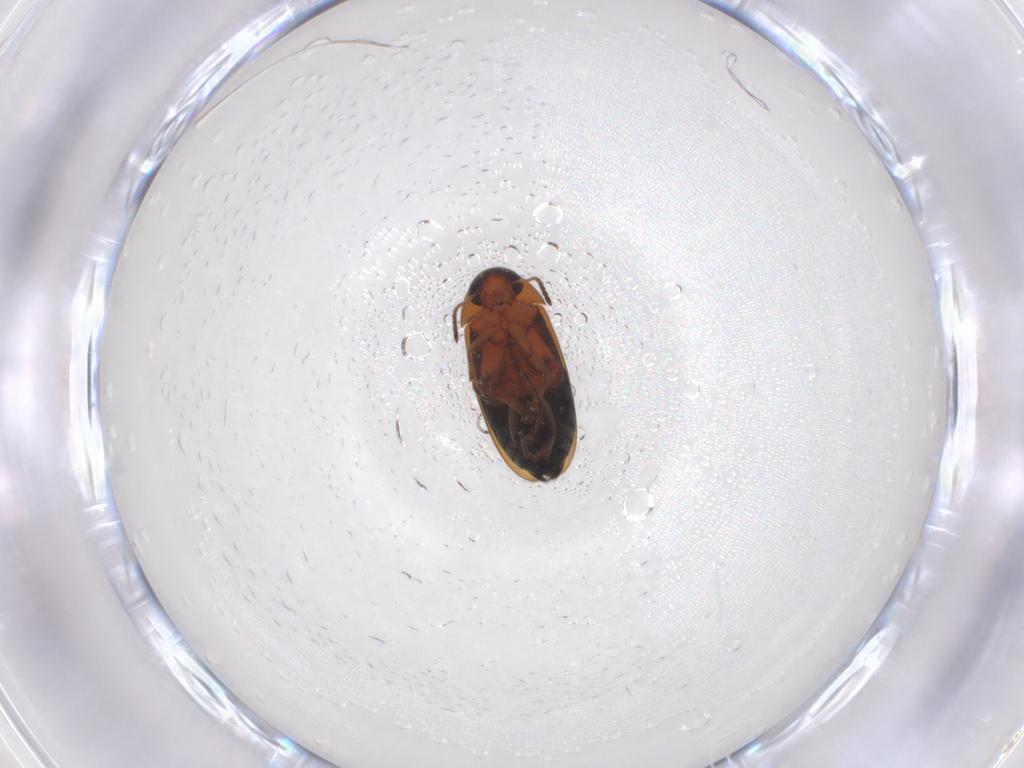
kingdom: Animalia
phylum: Arthropoda
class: Insecta
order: Coleoptera
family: Scraptiidae
